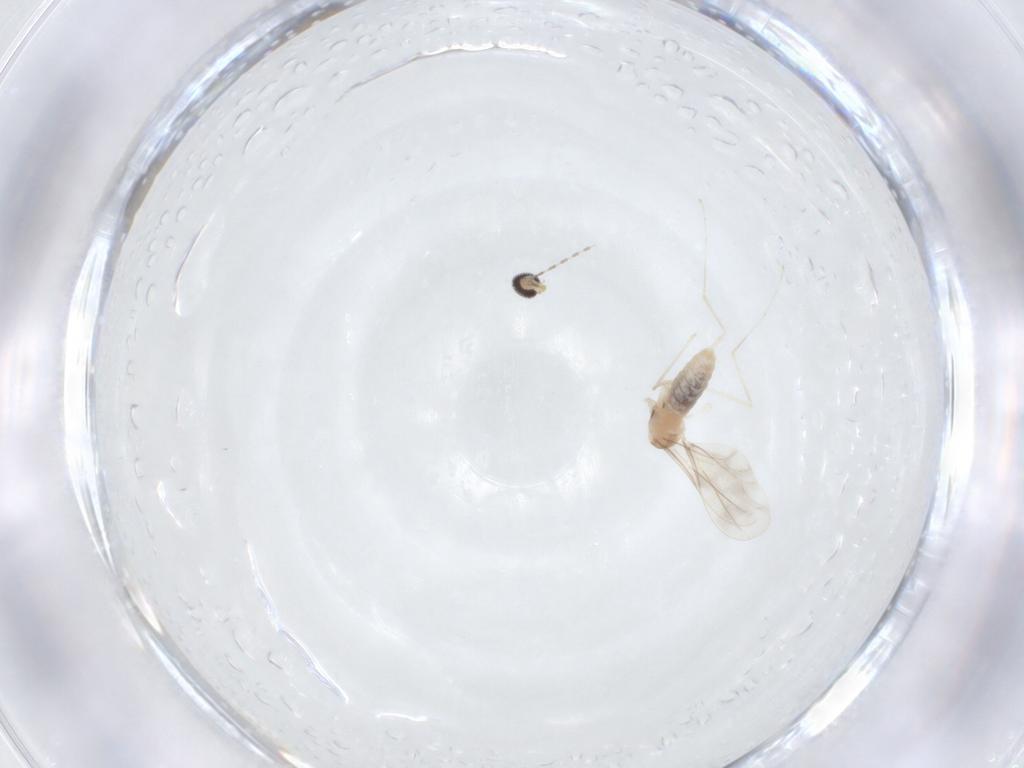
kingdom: Animalia
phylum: Arthropoda
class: Insecta
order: Diptera
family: Cecidomyiidae
